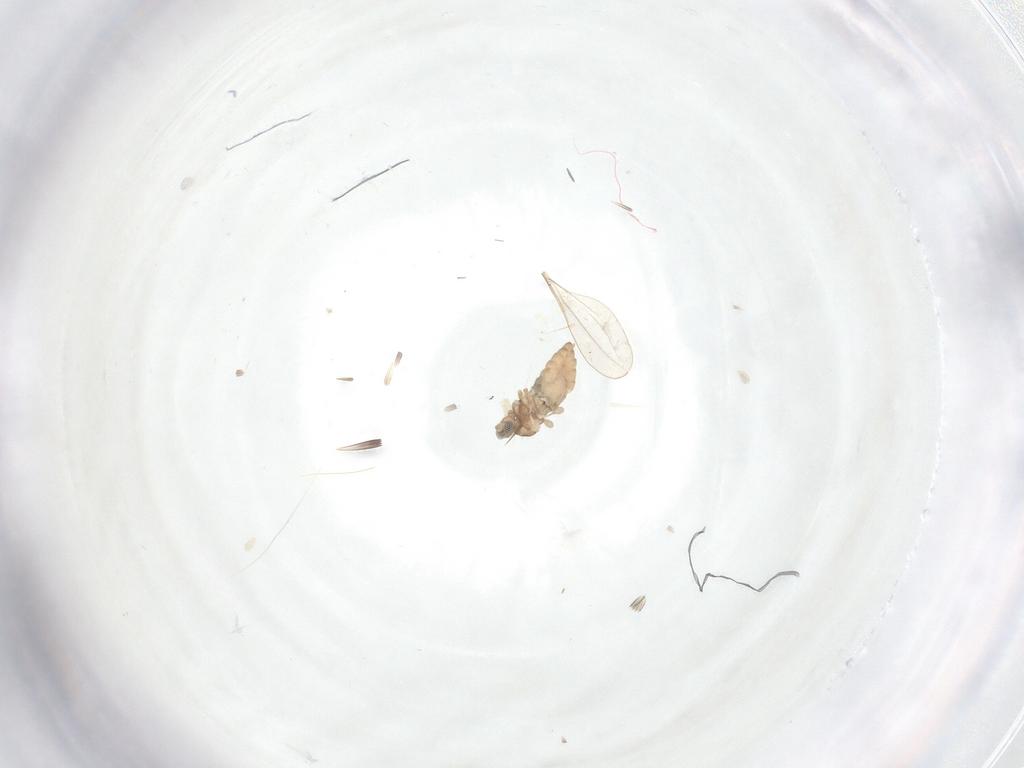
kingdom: Animalia
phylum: Arthropoda
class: Insecta
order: Diptera
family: Cecidomyiidae
